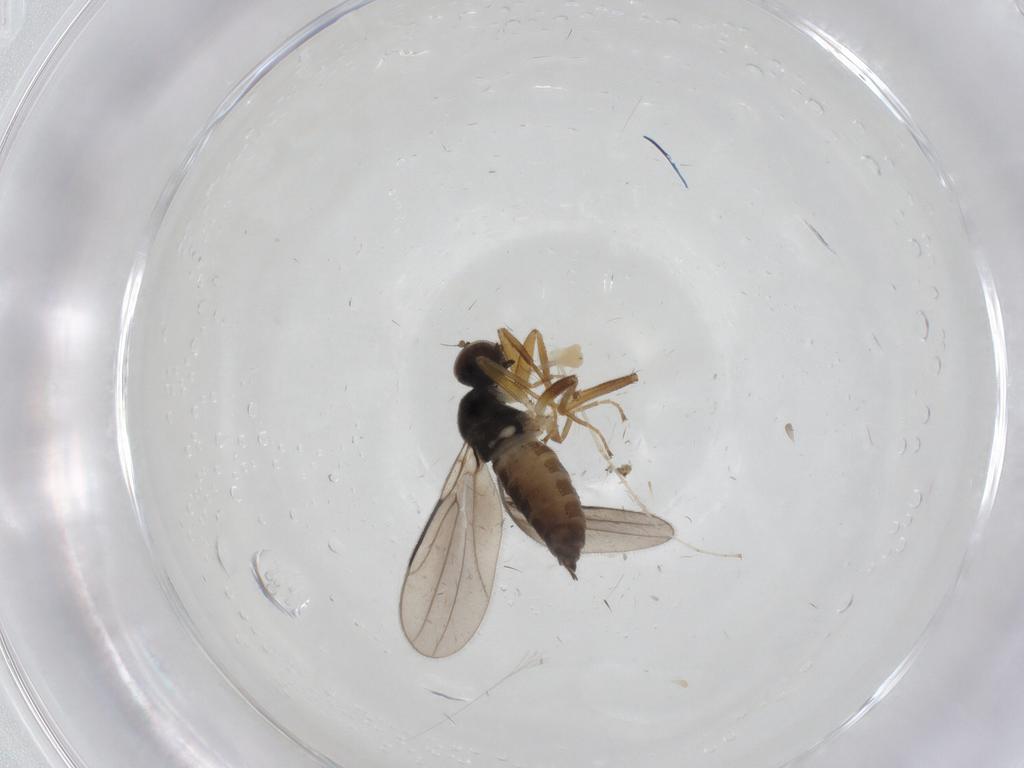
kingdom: Animalia
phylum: Arthropoda
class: Insecta
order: Diptera
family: Hybotidae
